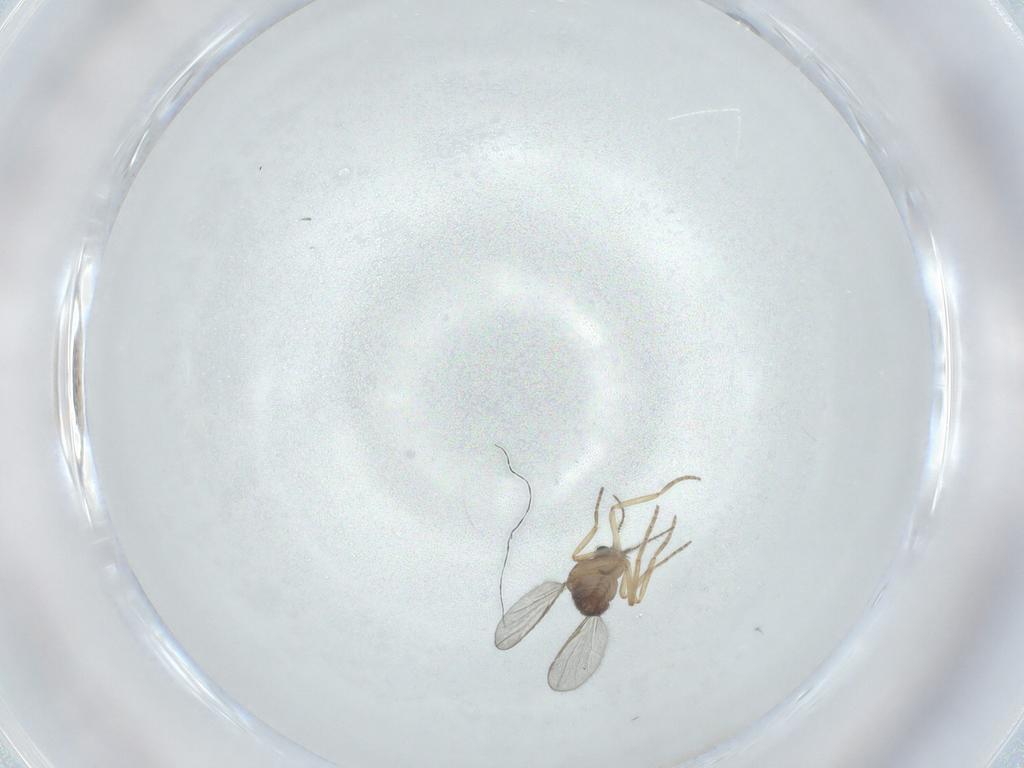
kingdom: Animalia
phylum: Arthropoda
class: Insecta
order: Diptera
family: Ceratopogonidae
